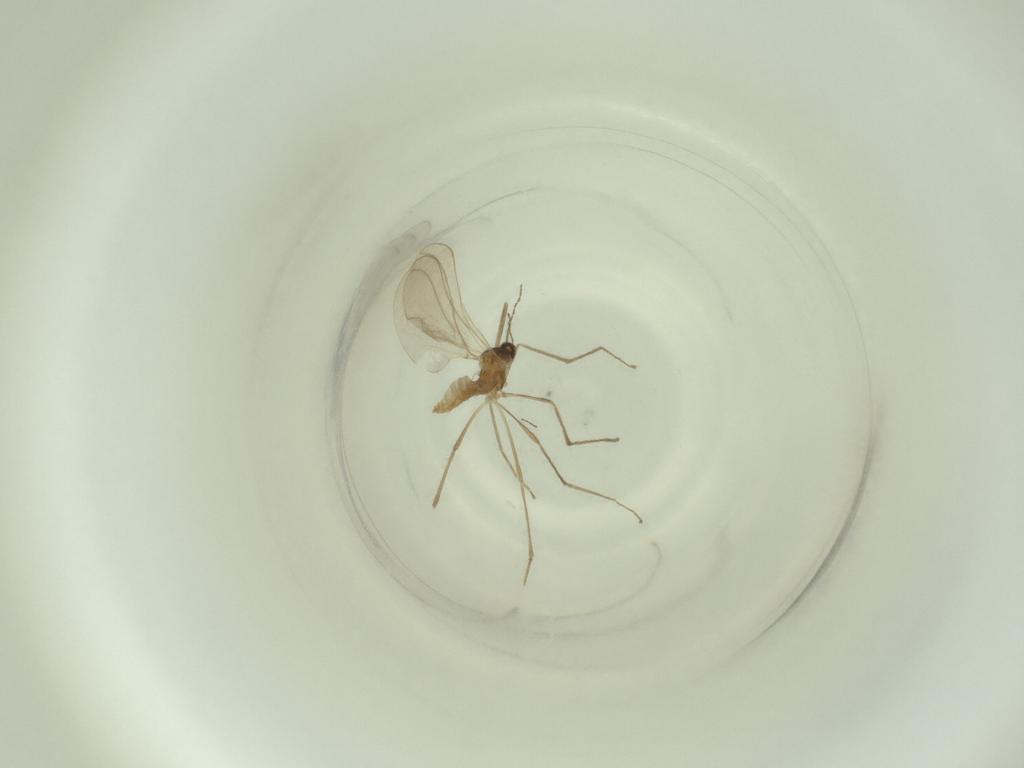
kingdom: Animalia
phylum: Arthropoda
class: Insecta
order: Diptera
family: Cecidomyiidae
